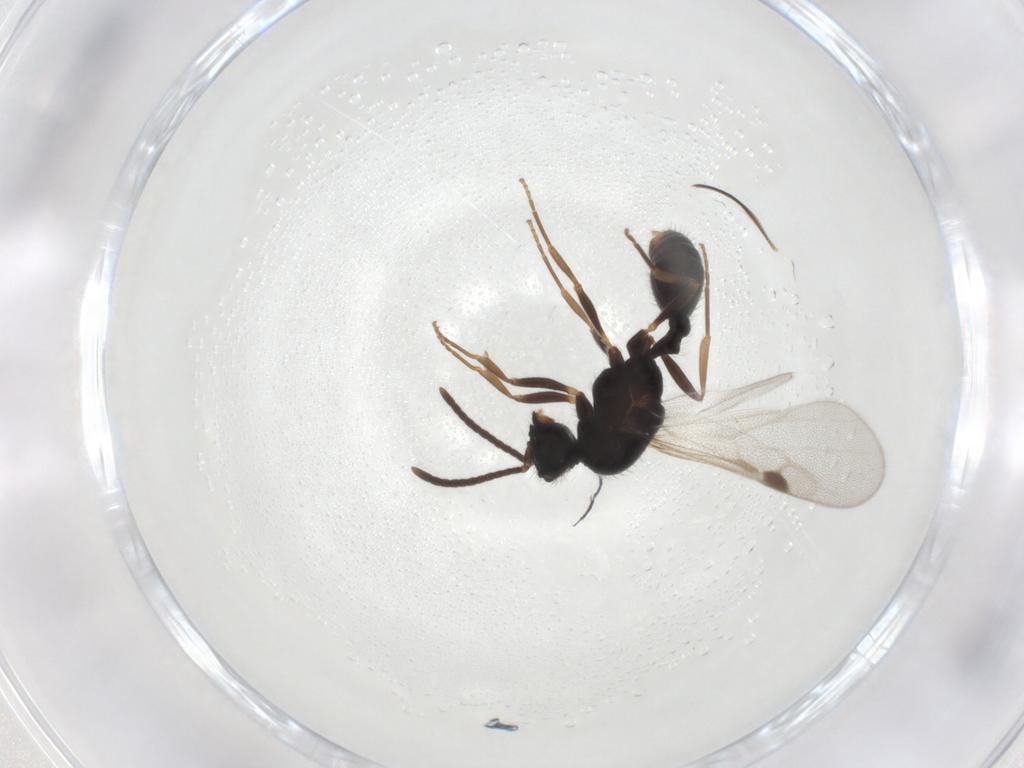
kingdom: Animalia
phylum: Arthropoda
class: Insecta
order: Hymenoptera
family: Formicidae
